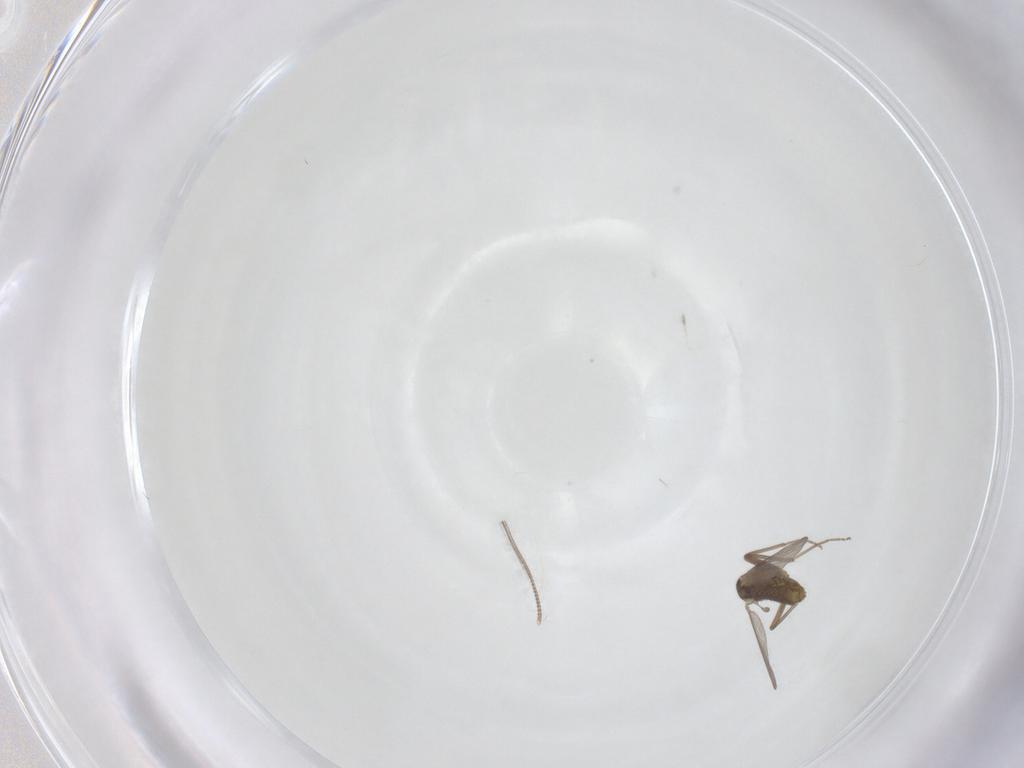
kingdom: Animalia
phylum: Arthropoda
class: Insecta
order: Diptera
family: Chironomidae
